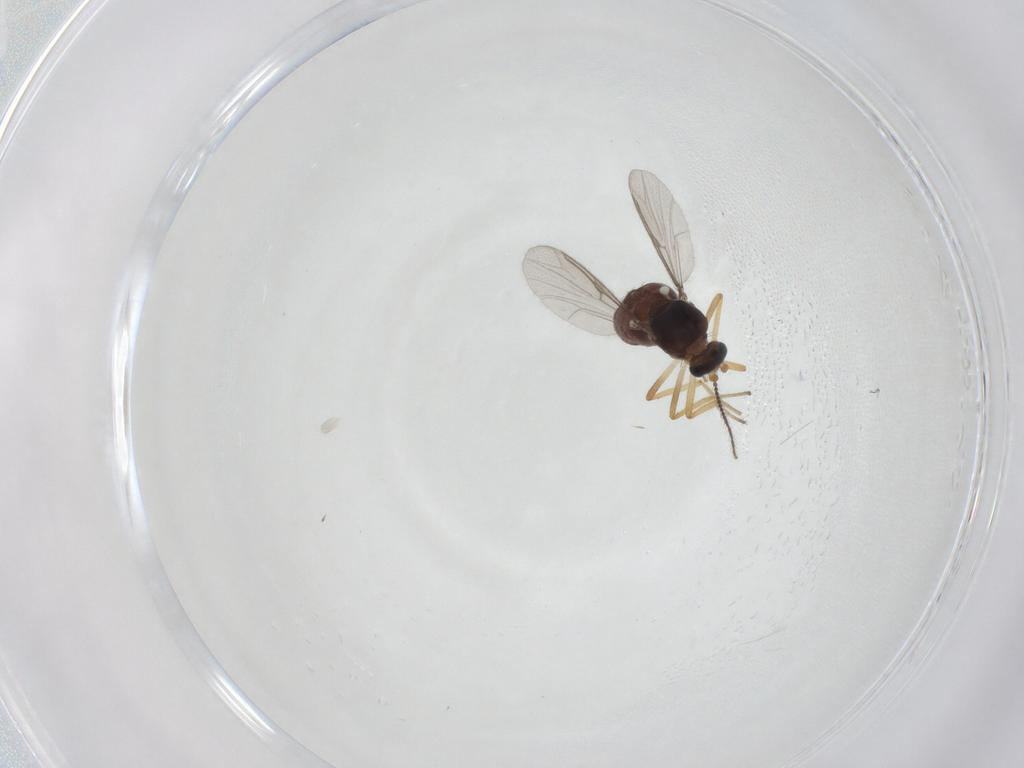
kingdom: Animalia
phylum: Arthropoda
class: Insecta
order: Diptera
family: Ceratopogonidae
